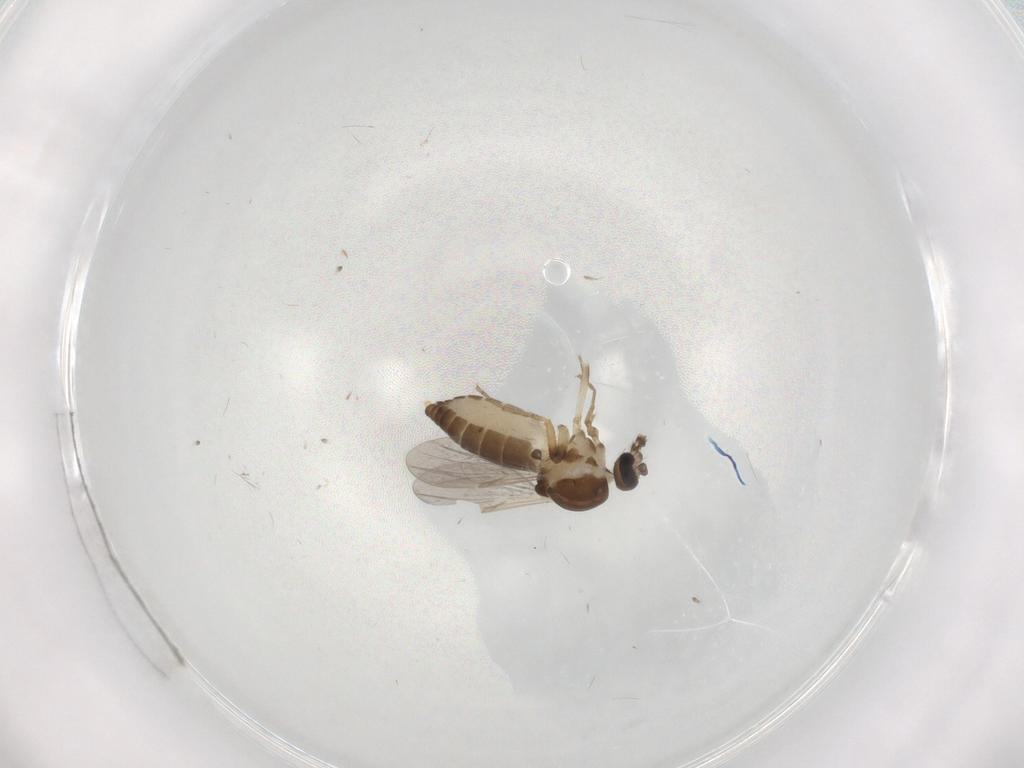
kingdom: Animalia
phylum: Arthropoda
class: Insecta
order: Diptera
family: Ceratopogonidae
